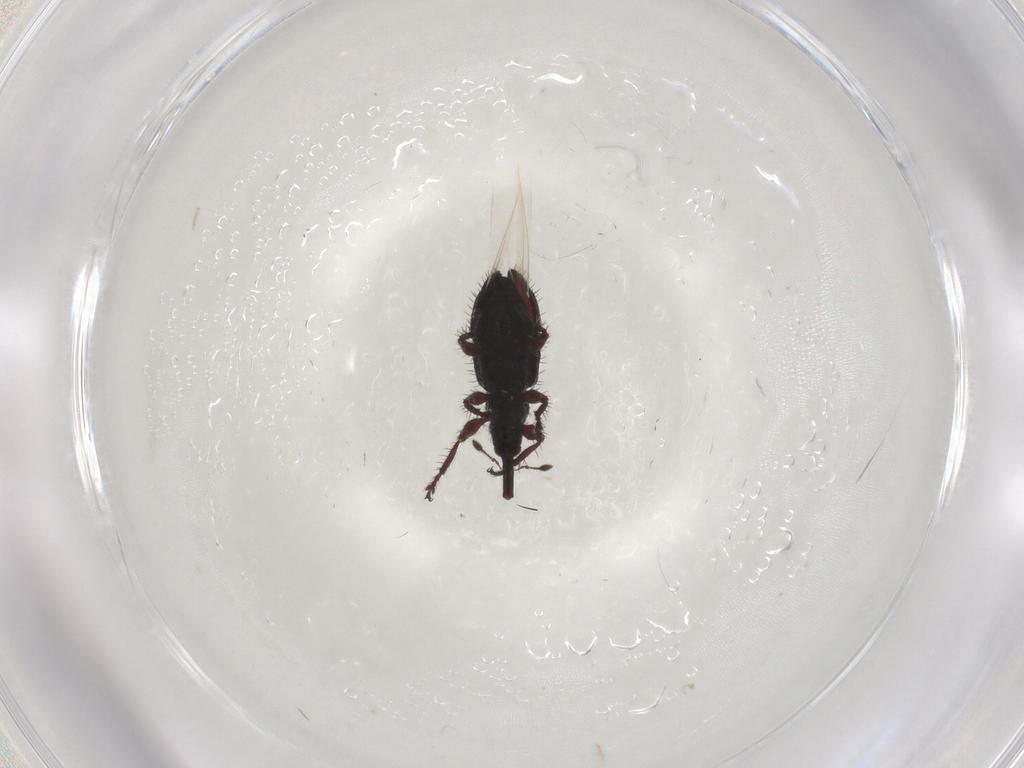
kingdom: Animalia
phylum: Arthropoda
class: Insecta
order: Coleoptera
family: Curculionidae
